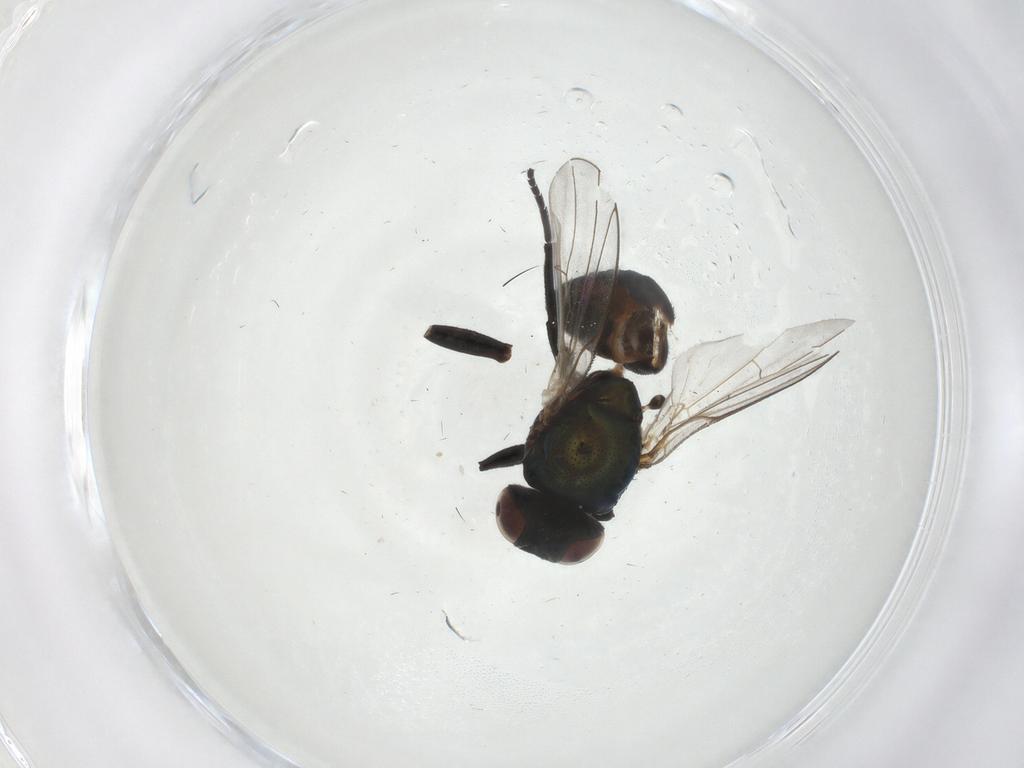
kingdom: Animalia
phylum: Arthropoda
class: Insecta
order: Diptera
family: Agromyzidae
